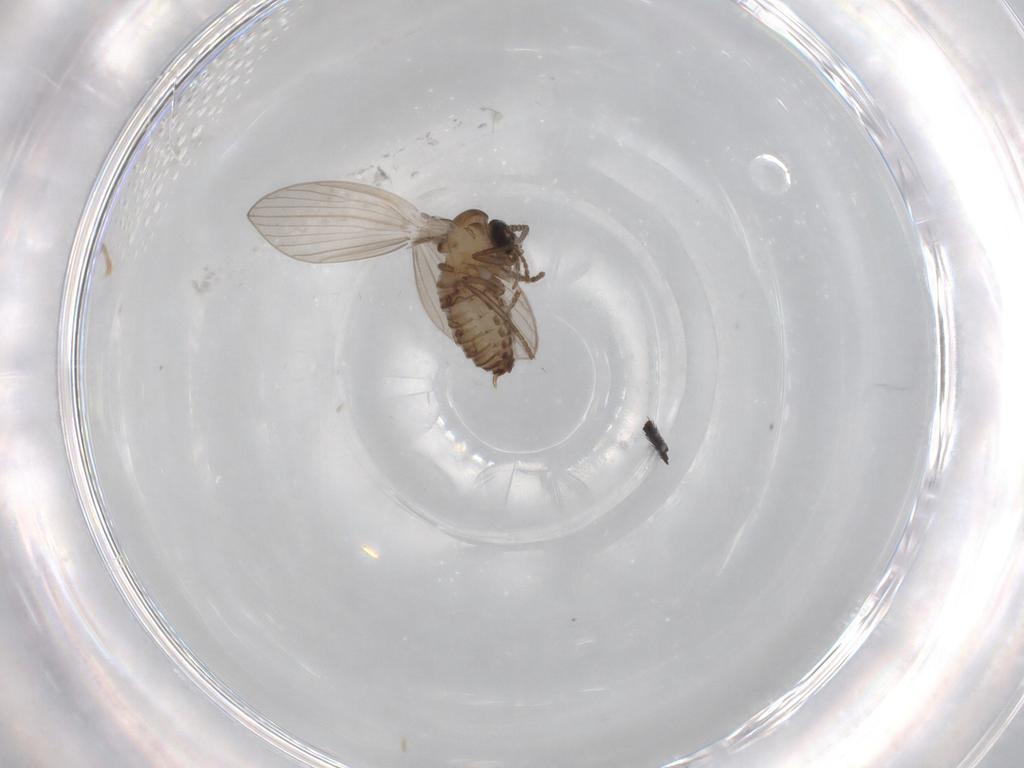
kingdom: Animalia
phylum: Arthropoda
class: Insecta
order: Diptera
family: Psychodidae
